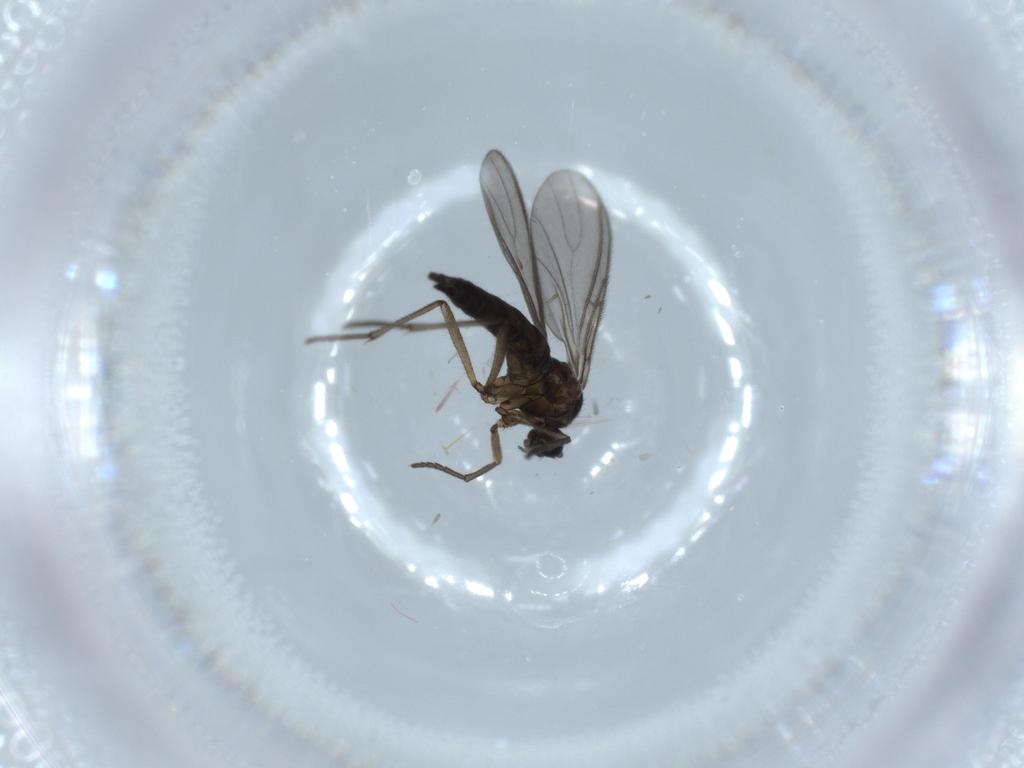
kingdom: Animalia
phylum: Arthropoda
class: Insecta
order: Diptera
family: Sciaridae
